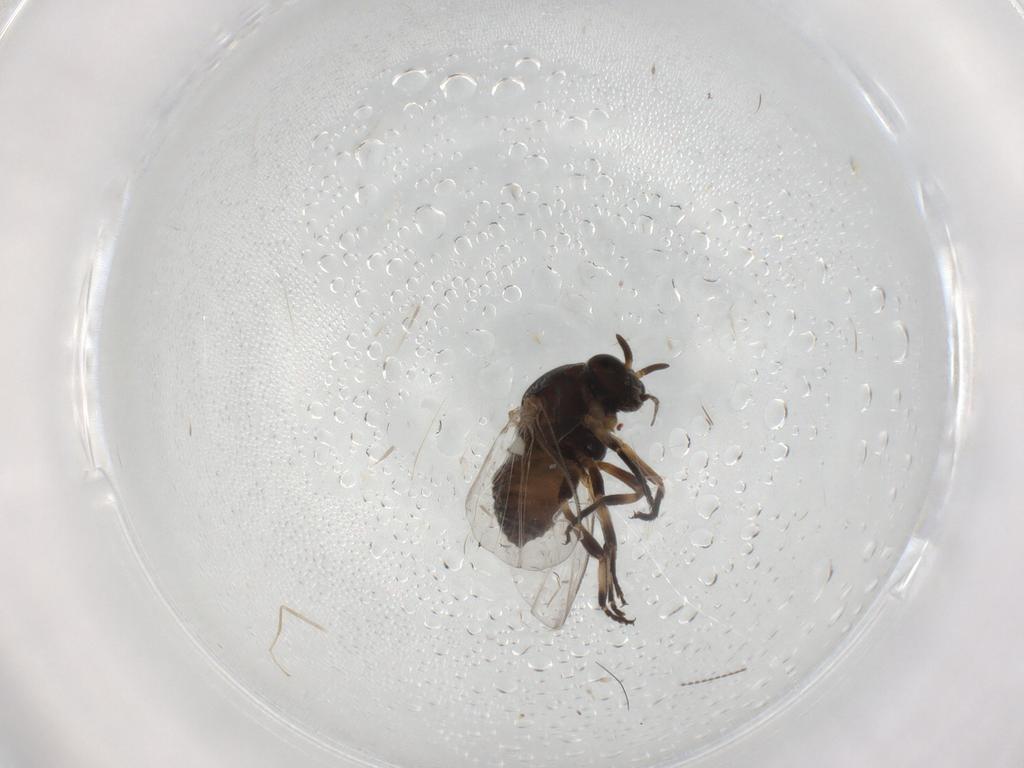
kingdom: Animalia
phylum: Arthropoda
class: Insecta
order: Diptera
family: Cecidomyiidae
